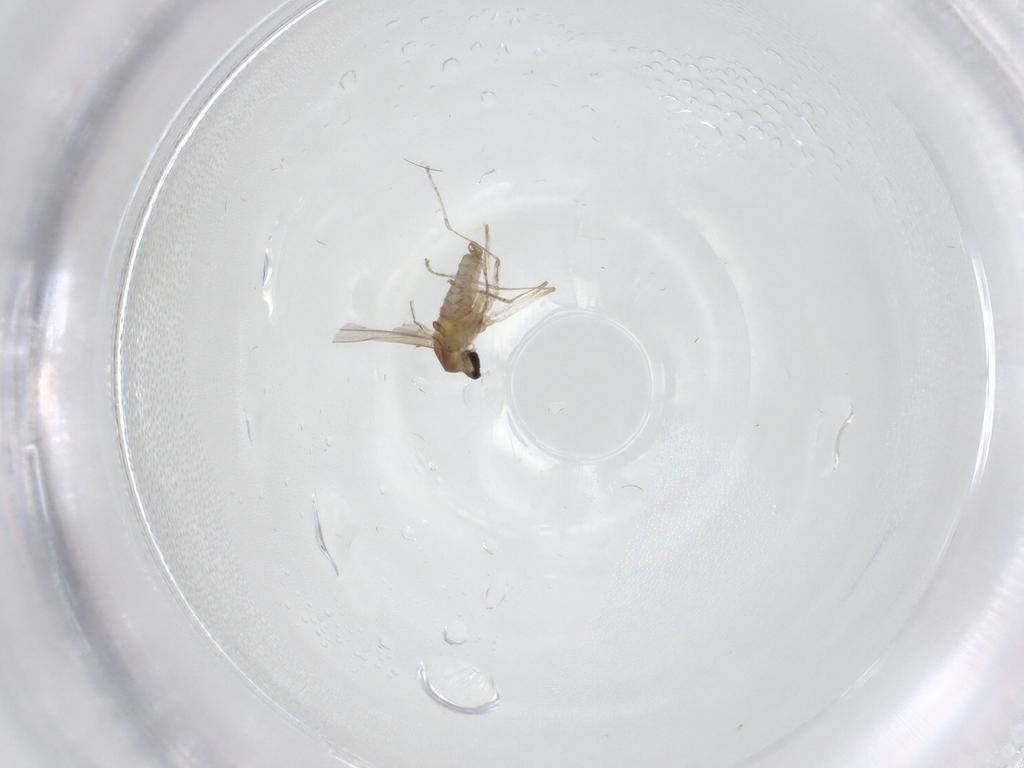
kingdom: Animalia
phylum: Arthropoda
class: Insecta
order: Diptera
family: Cecidomyiidae
